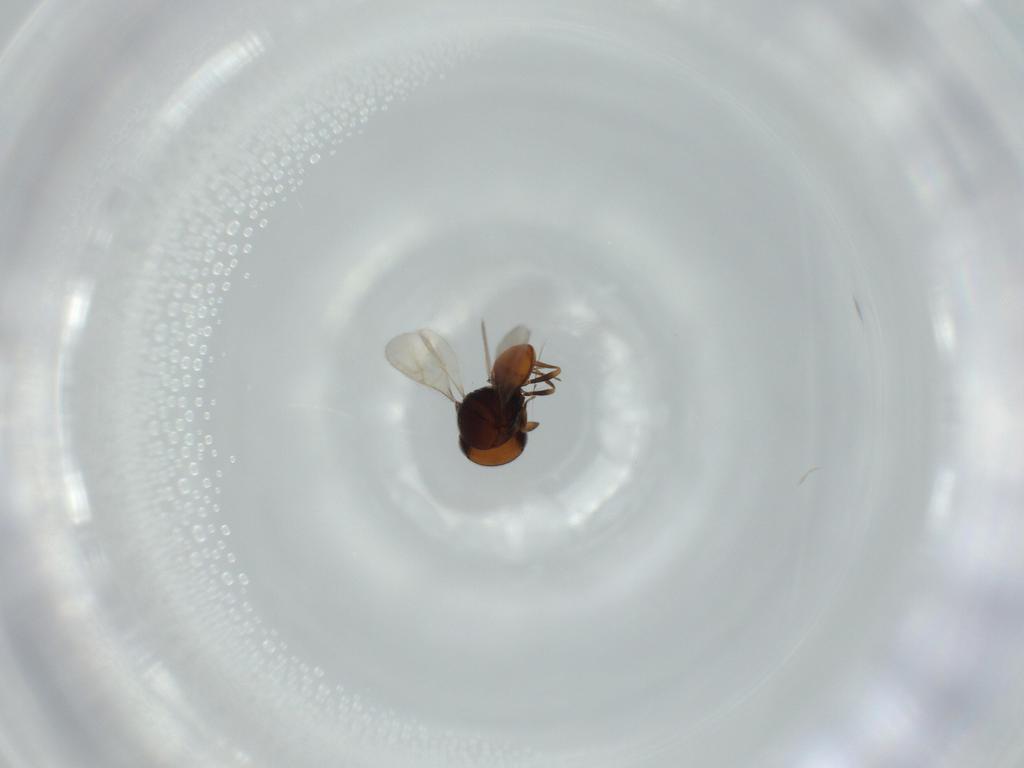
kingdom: Animalia
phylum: Arthropoda
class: Insecta
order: Hymenoptera
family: Scelionidae
